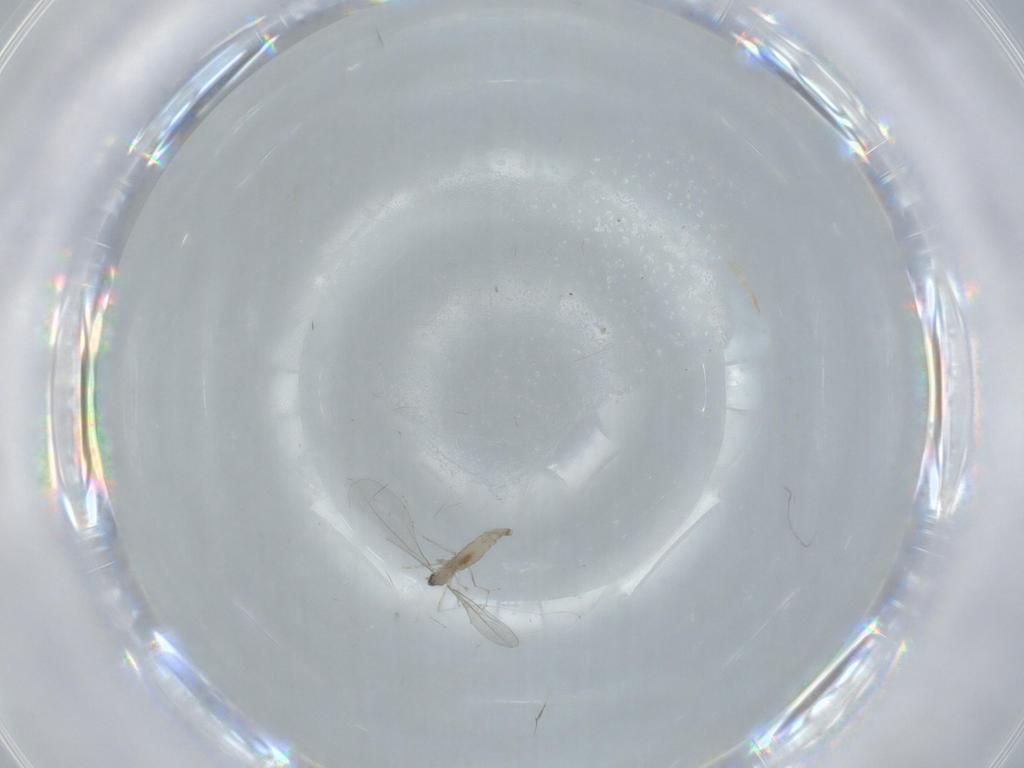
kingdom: Animalia
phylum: Arthropoda
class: Insecta
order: Diptera
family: Cecidomyiidae
